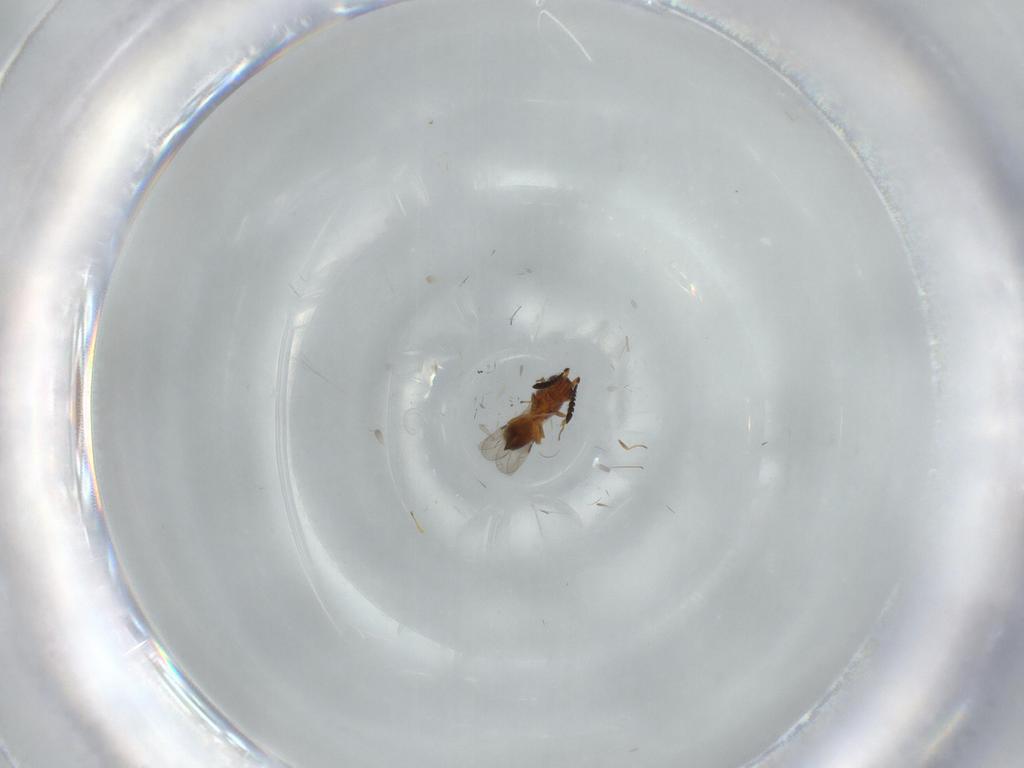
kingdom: Animalia
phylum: Arthropoda
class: Insecta
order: Hymenoptera
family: Ceraphronidae
